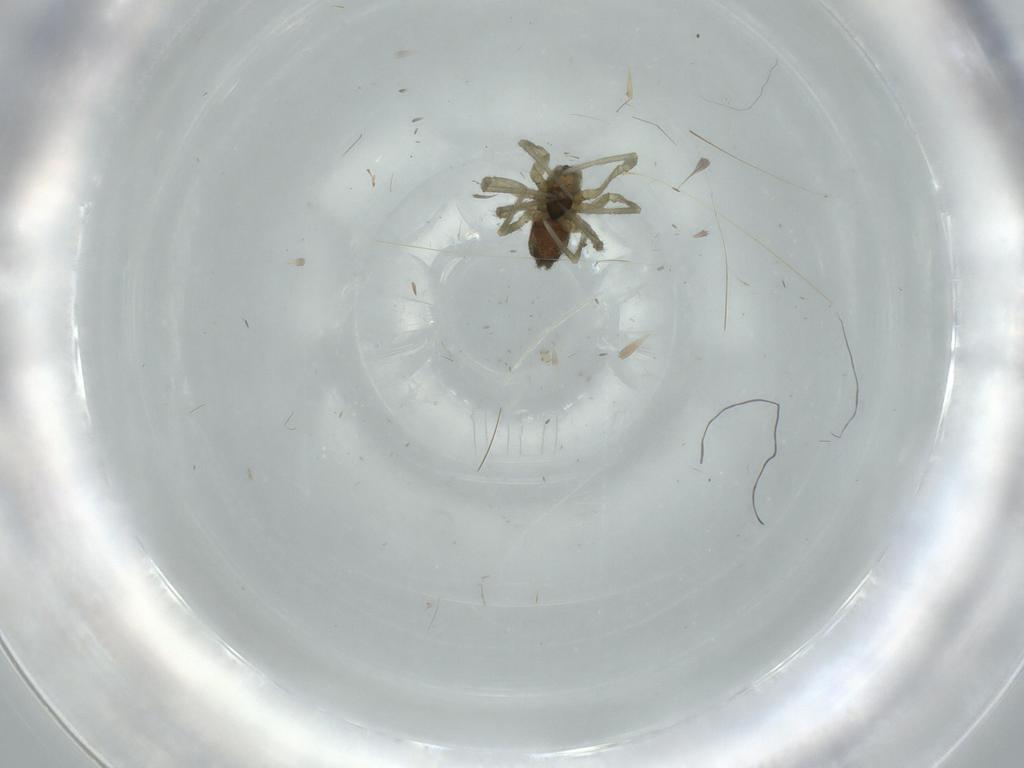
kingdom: Animalia
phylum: Arthropoda
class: Arachnida
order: Araneae
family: Linyphiidae
